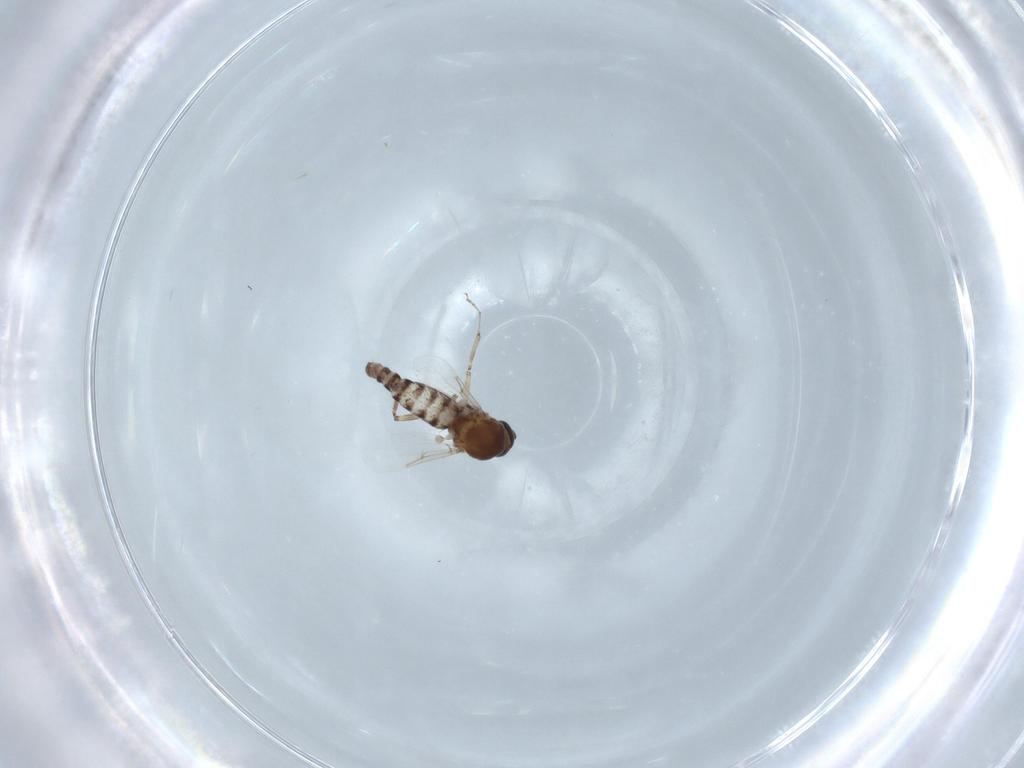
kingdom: Animalia
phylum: Arthropoda
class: Insecta
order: Diptera
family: Ceratopogonidae
